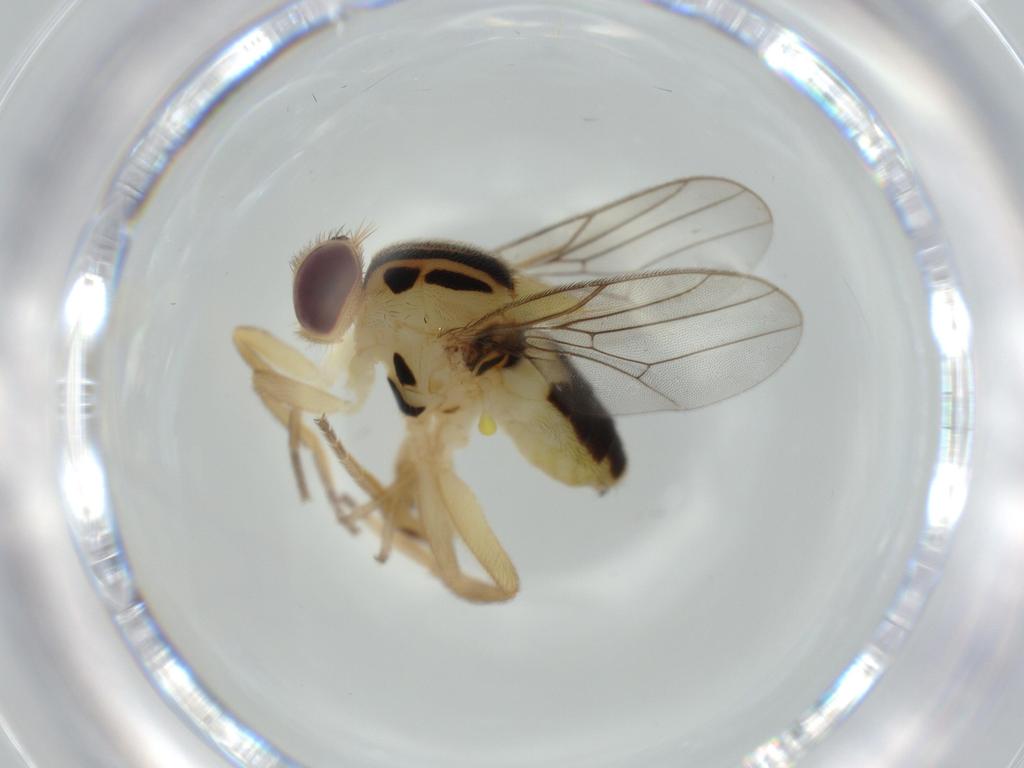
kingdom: Animalia
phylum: Arthropoda
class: Insecta
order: Diptera
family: Chloropidae
